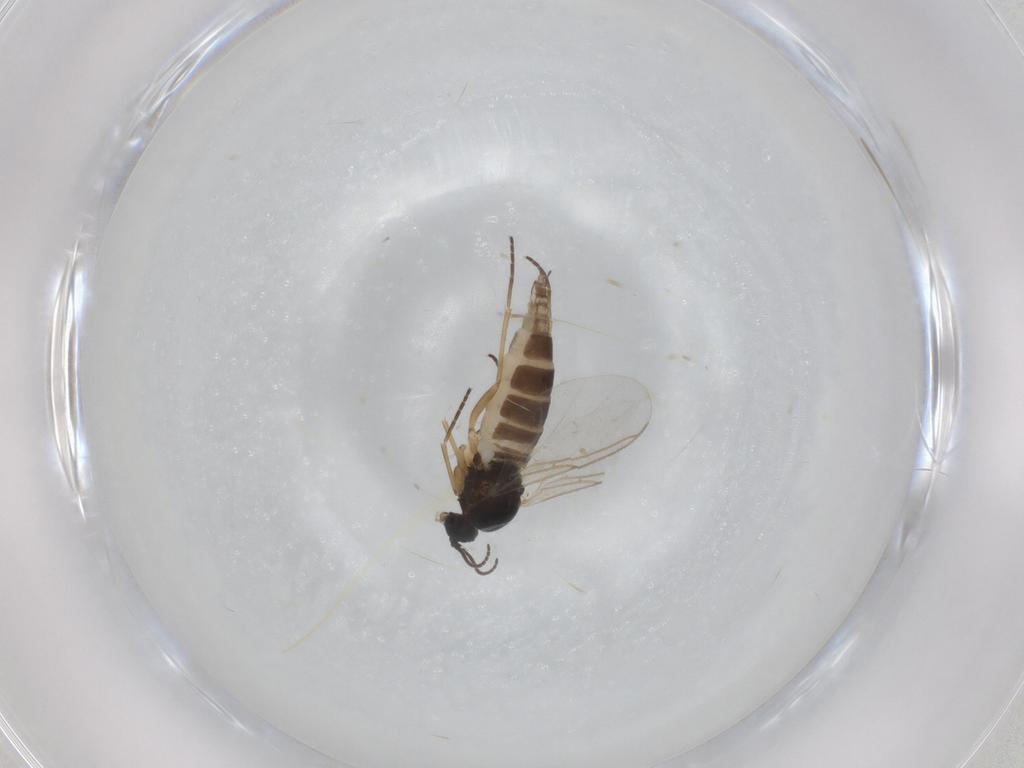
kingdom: Animalia
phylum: Arthropoda
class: Insecta
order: Diptera
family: Sciaridae
